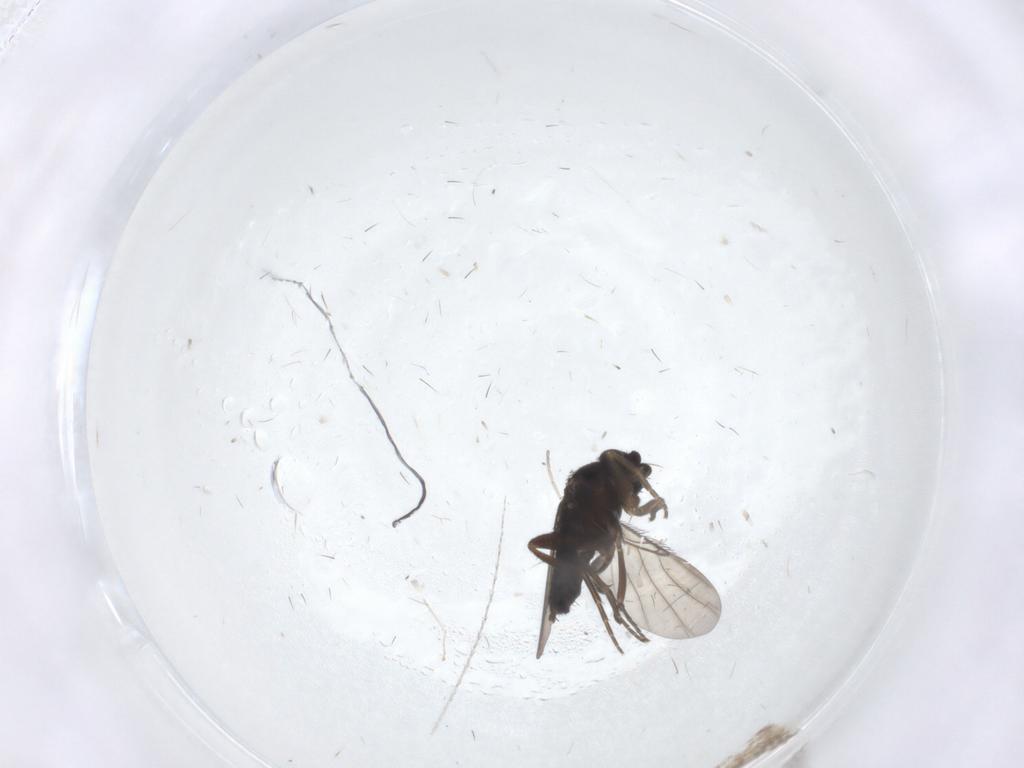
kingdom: Animalia
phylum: Arthropoda
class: Insecta
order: Diptera
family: Cecidomyiidae
